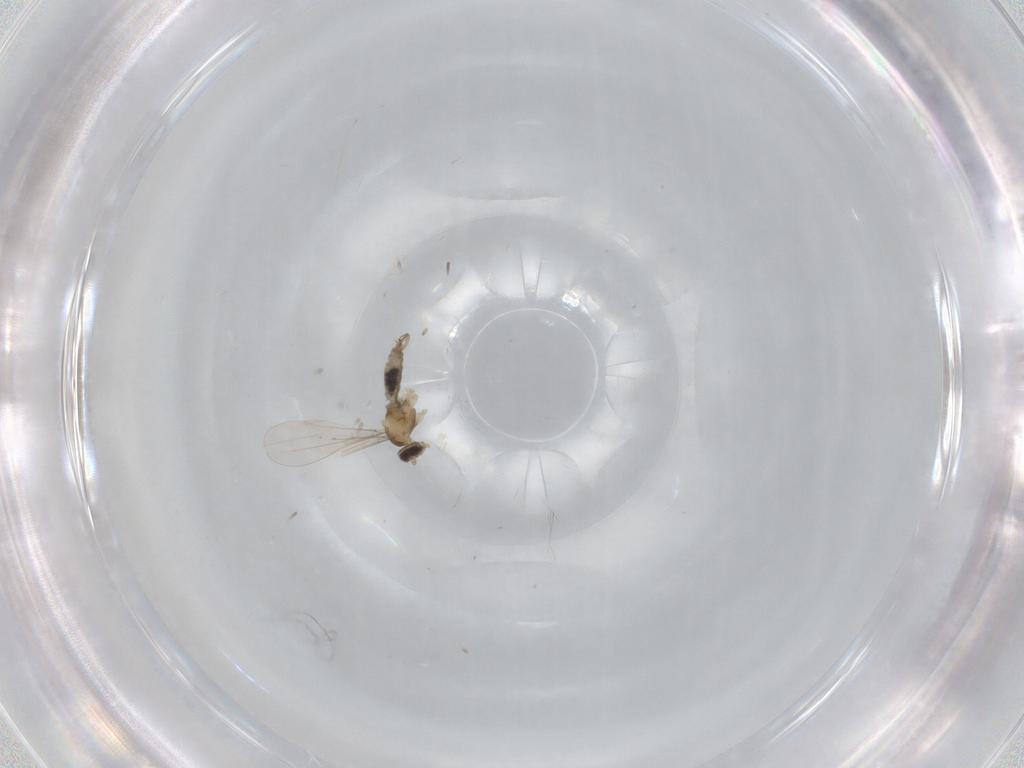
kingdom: Animalia
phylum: Arthropoda
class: Insecta
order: Diptera
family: Cecidomyiidae
